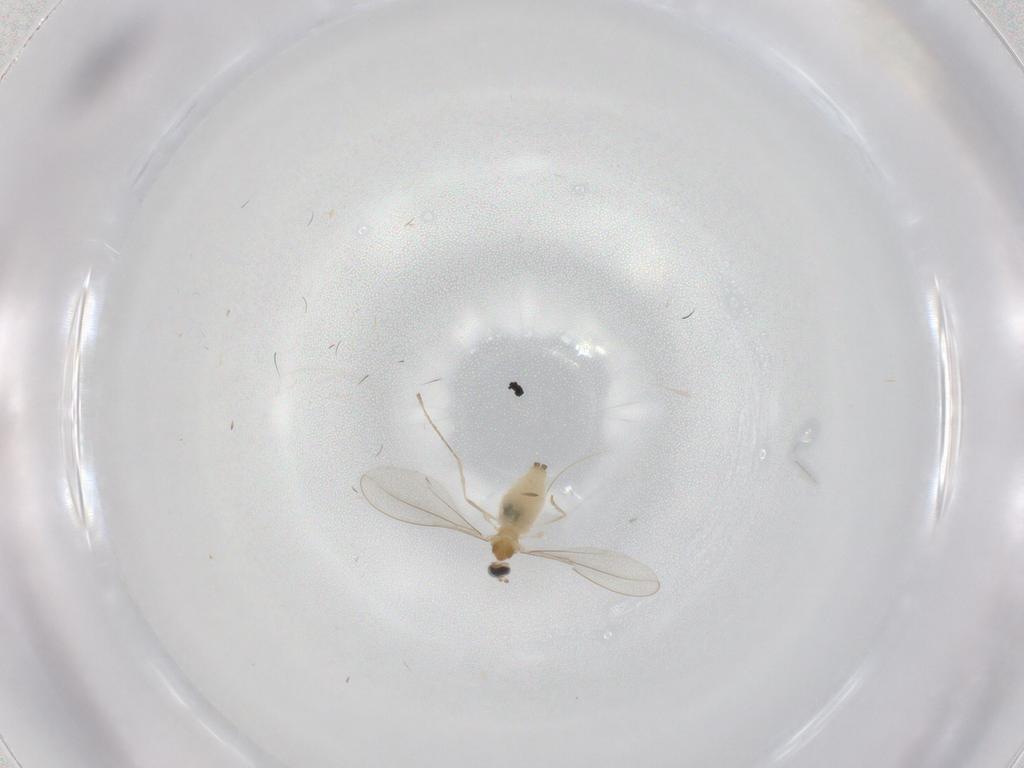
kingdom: Animalia
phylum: Arthropoda
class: Insecta
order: Diptera
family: Cecidomyiidae
